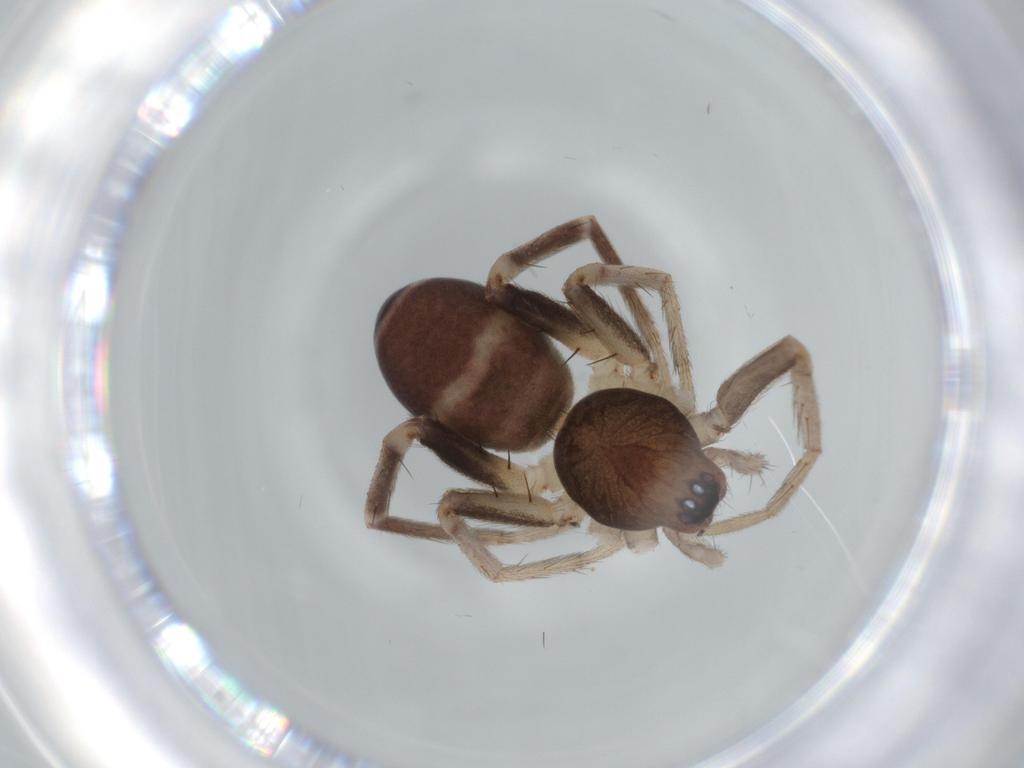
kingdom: Animalia
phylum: Arthropoda
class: Arachnida
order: Araneae
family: Corinnidae
